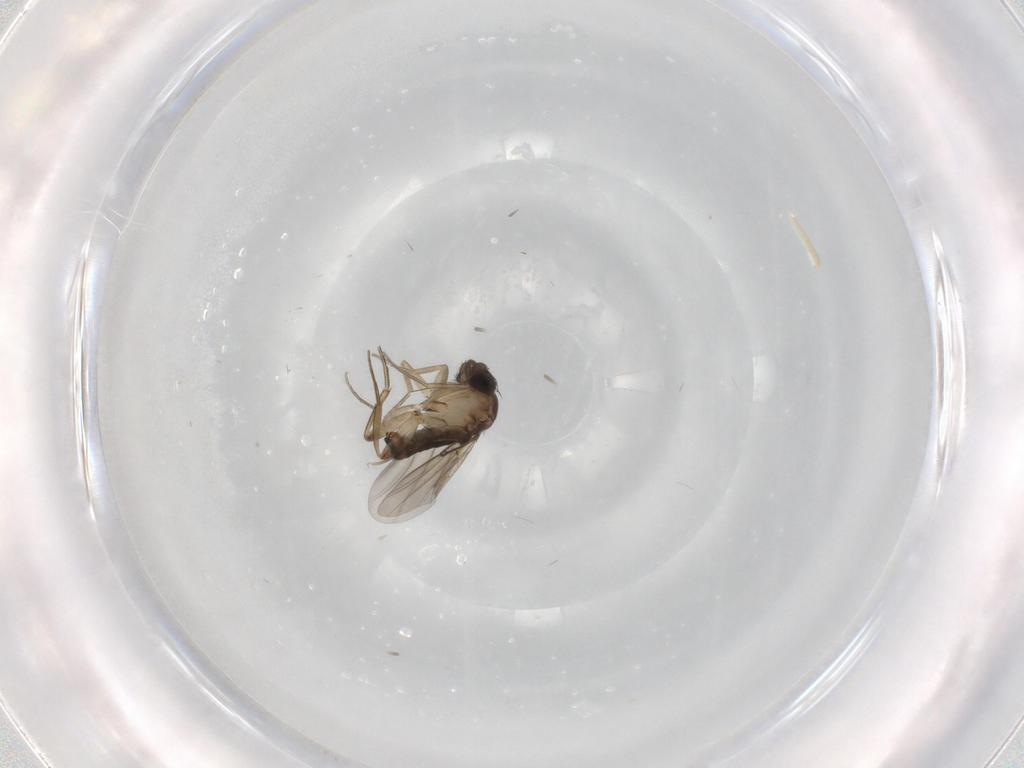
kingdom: Animalia
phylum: Arthropoda
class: Insecta
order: Diptera
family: Phoridae
